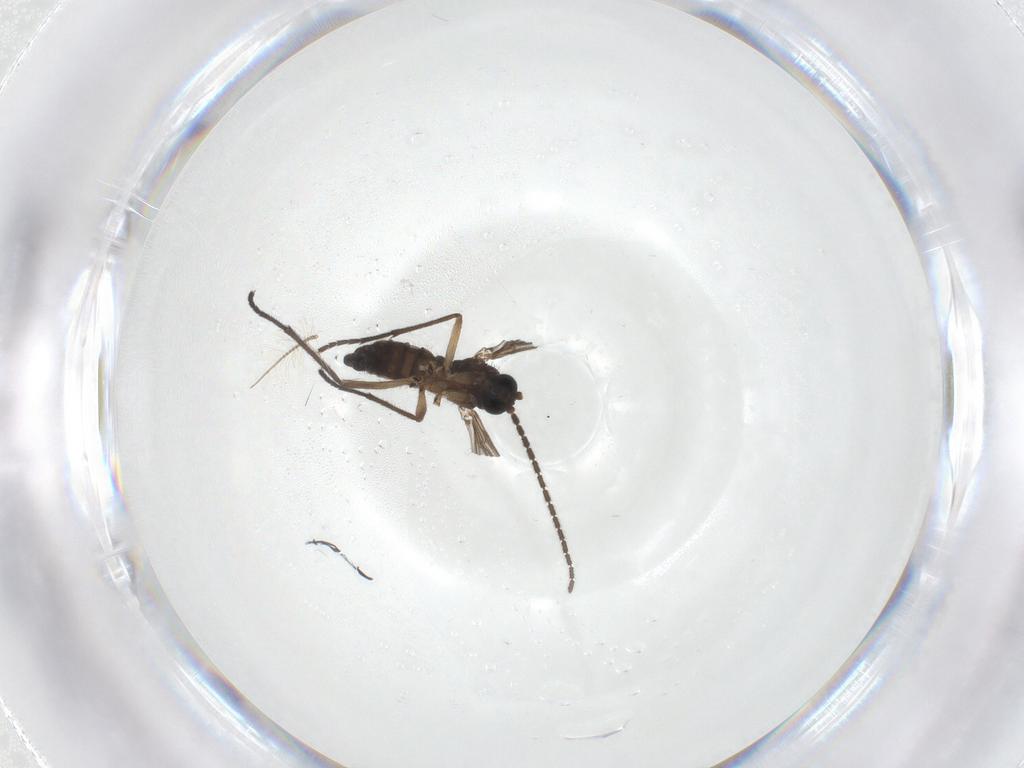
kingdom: Animalia
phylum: Arthropoda
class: Insecta
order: Diptera
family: Chironomidae
